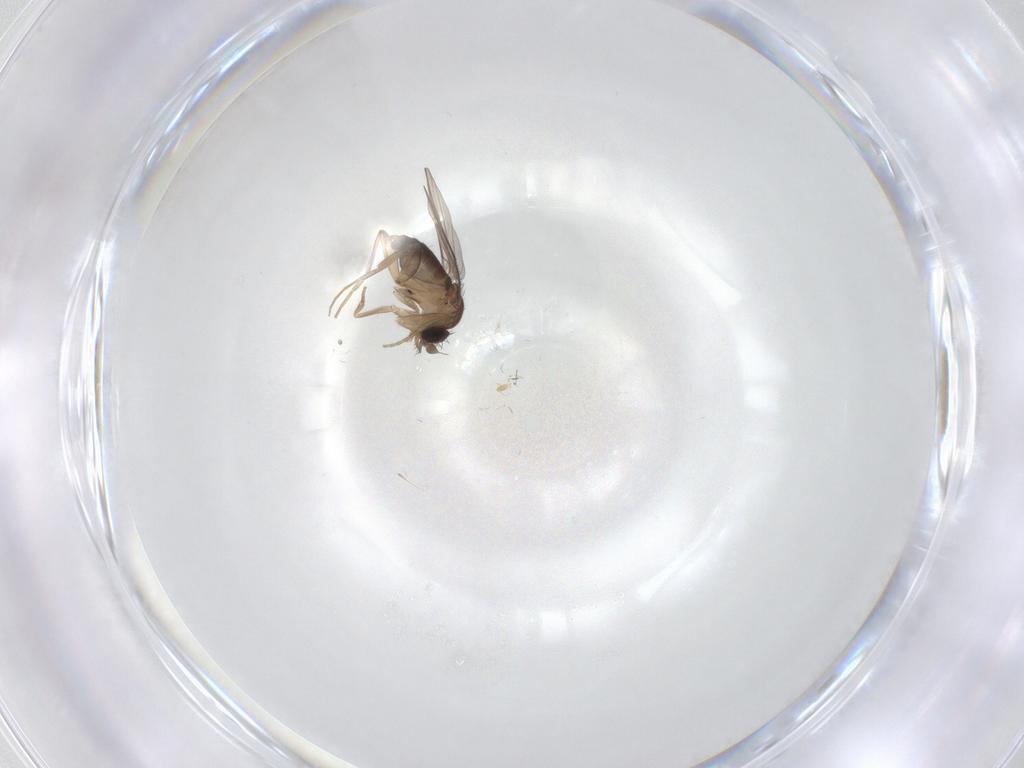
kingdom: Animalia
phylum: Arthropoda
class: Insecta
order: Diptera
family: Phoridae
